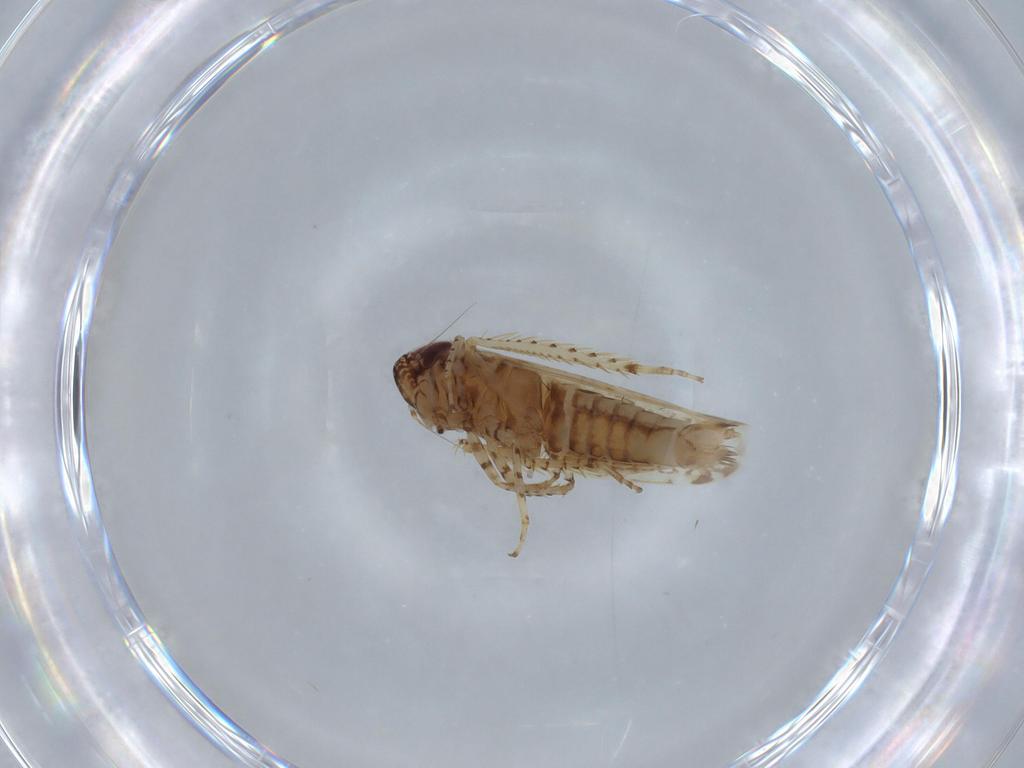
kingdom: Animalia
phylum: Arthropoda
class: Insecta
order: Hemiptera
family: Cicadellidae
